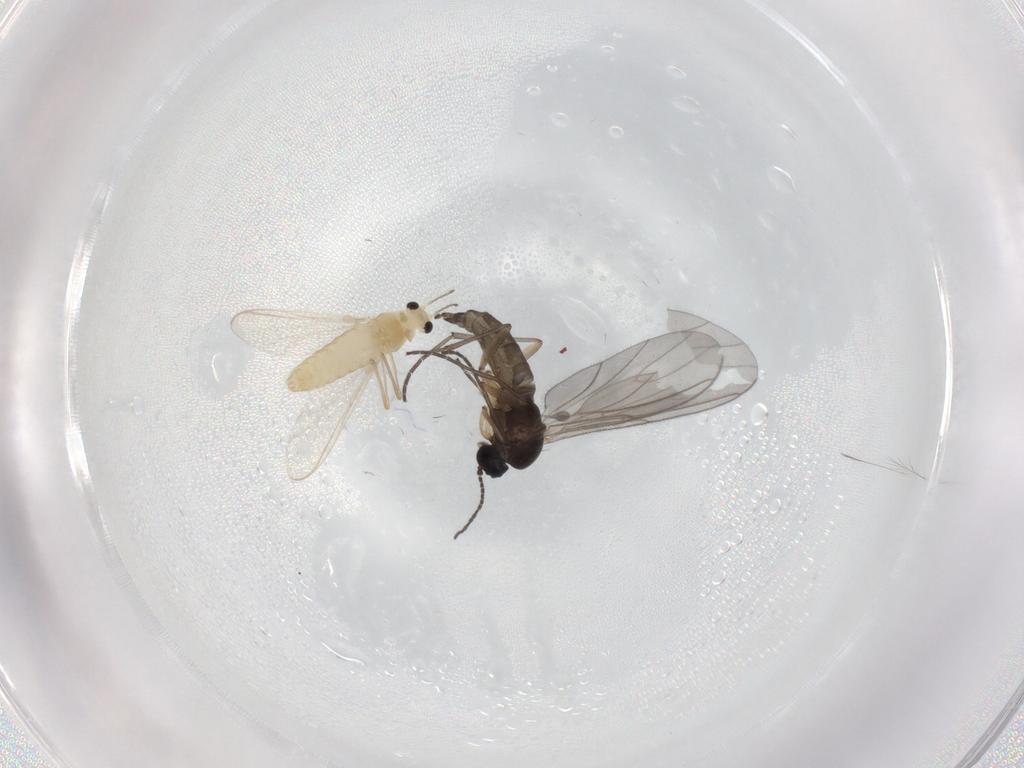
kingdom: Animalia
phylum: Arthropoda
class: Insecta
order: Diptera
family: Sciaridae
